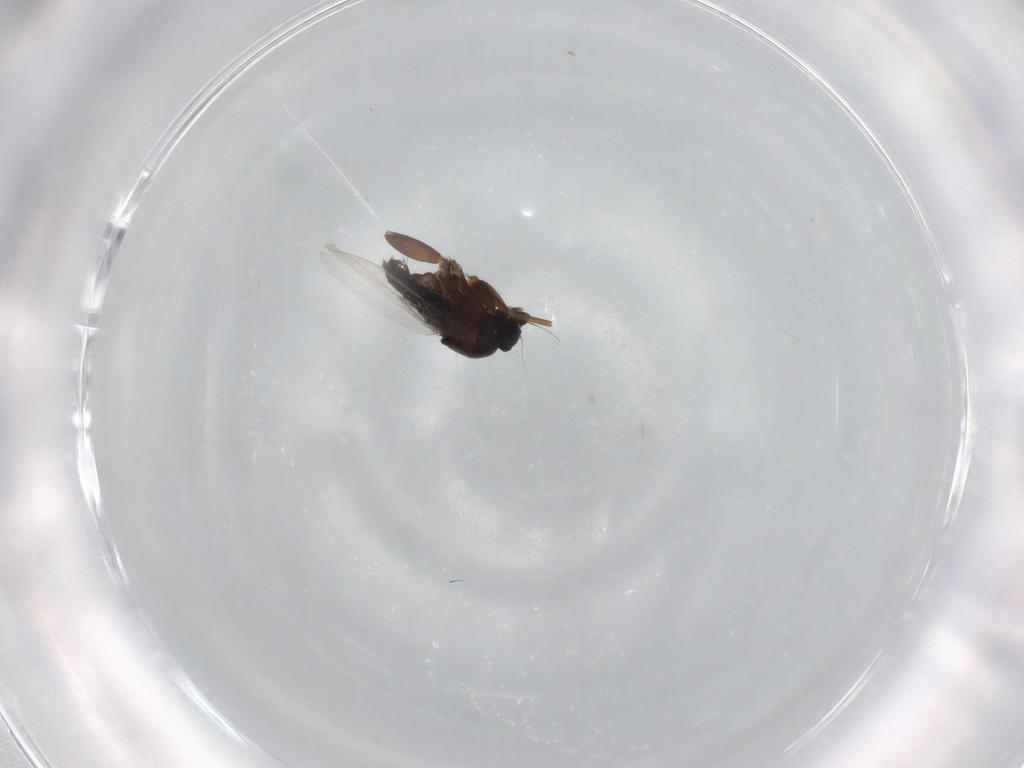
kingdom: Animalia
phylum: Arthropoda
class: Insecta
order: Diptera
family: Phoridae
